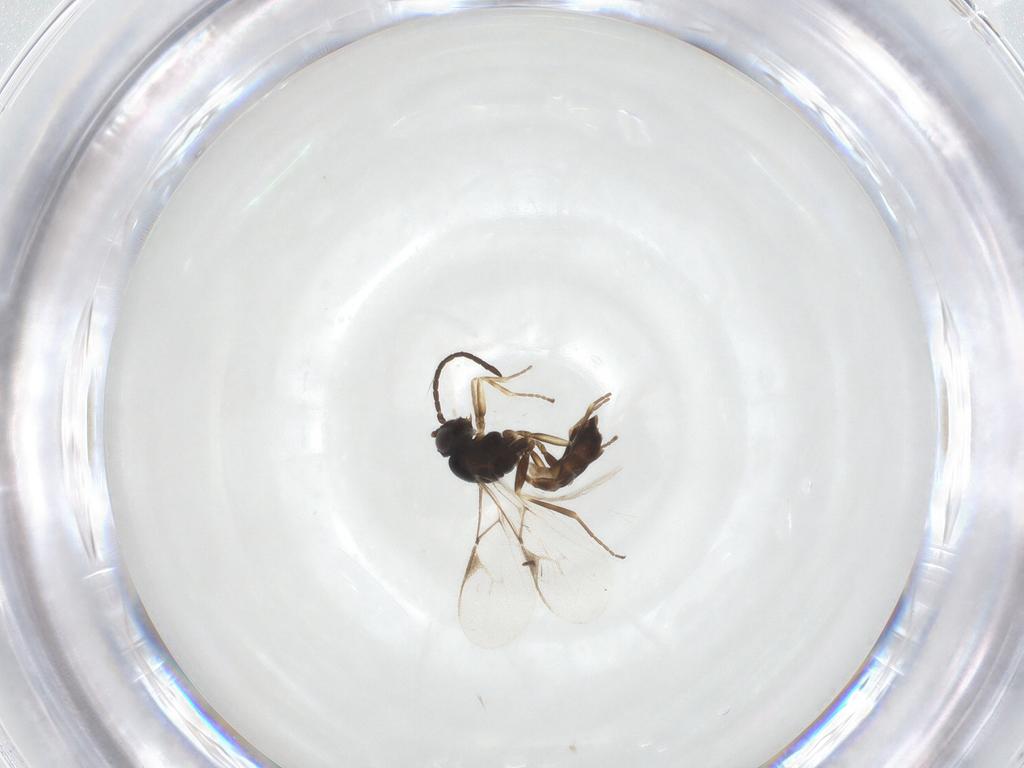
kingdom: Animalia
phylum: Arthropoda
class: Insecta
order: Hymenoptera
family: Braconidae
